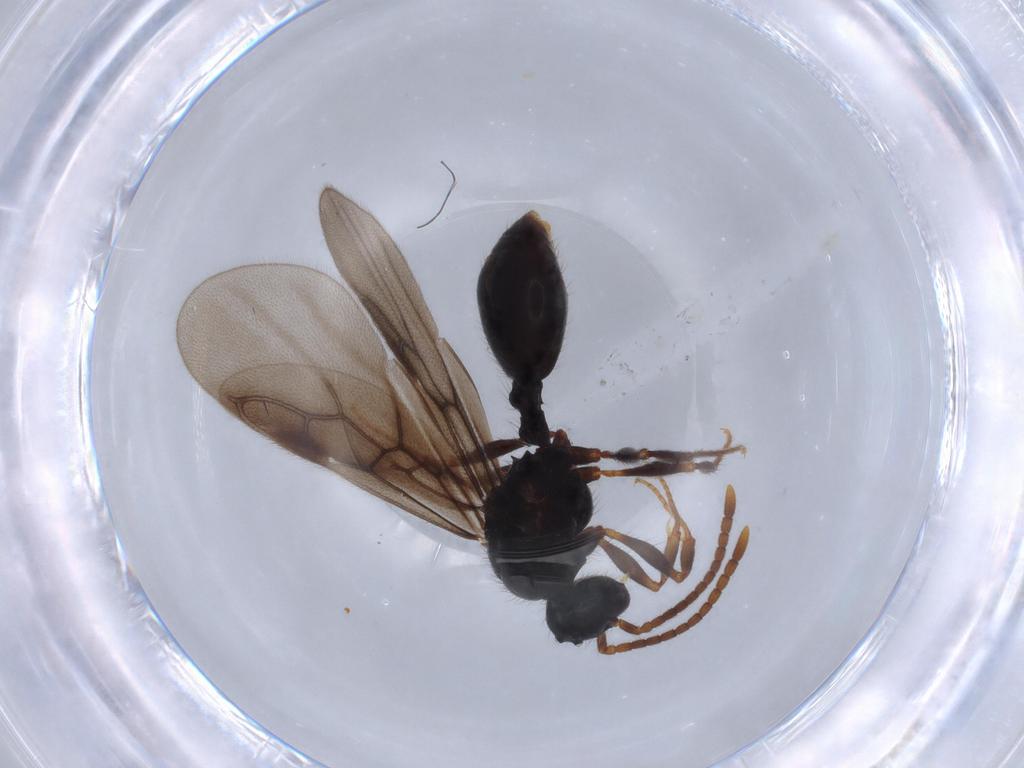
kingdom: Animalia
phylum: Arthropoda
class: Insecta
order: Hymenoptera
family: Formicidae
